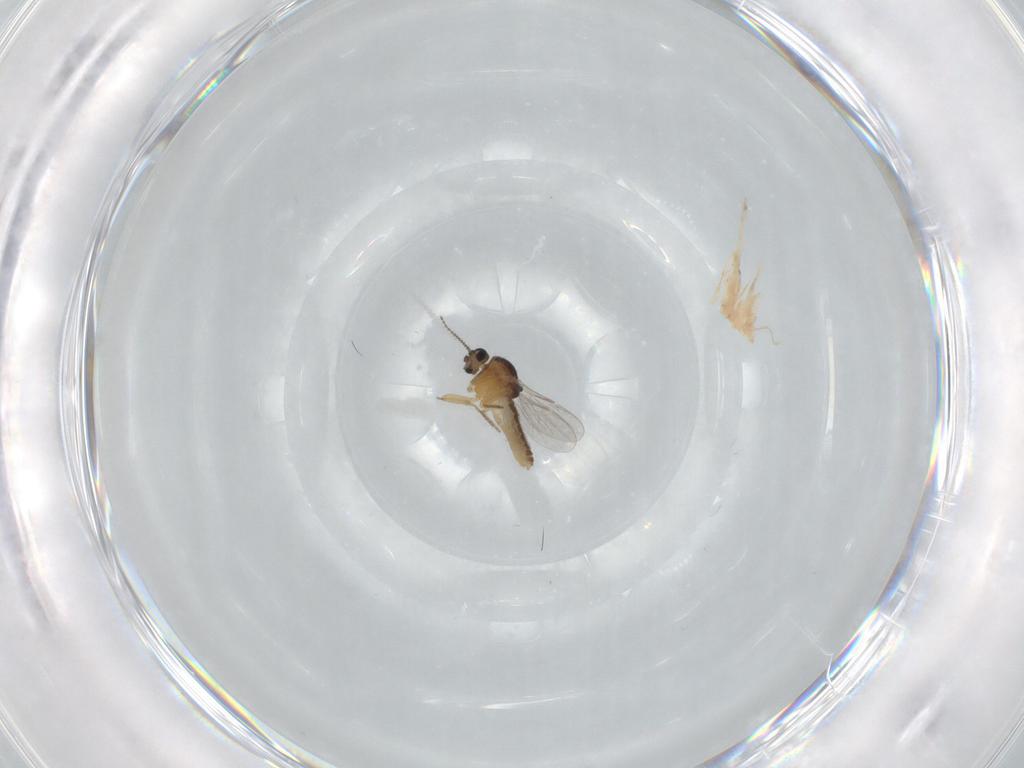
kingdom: Animalia
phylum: Arthropoda
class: Insecta
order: Diptera
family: Ceratopogonidae
